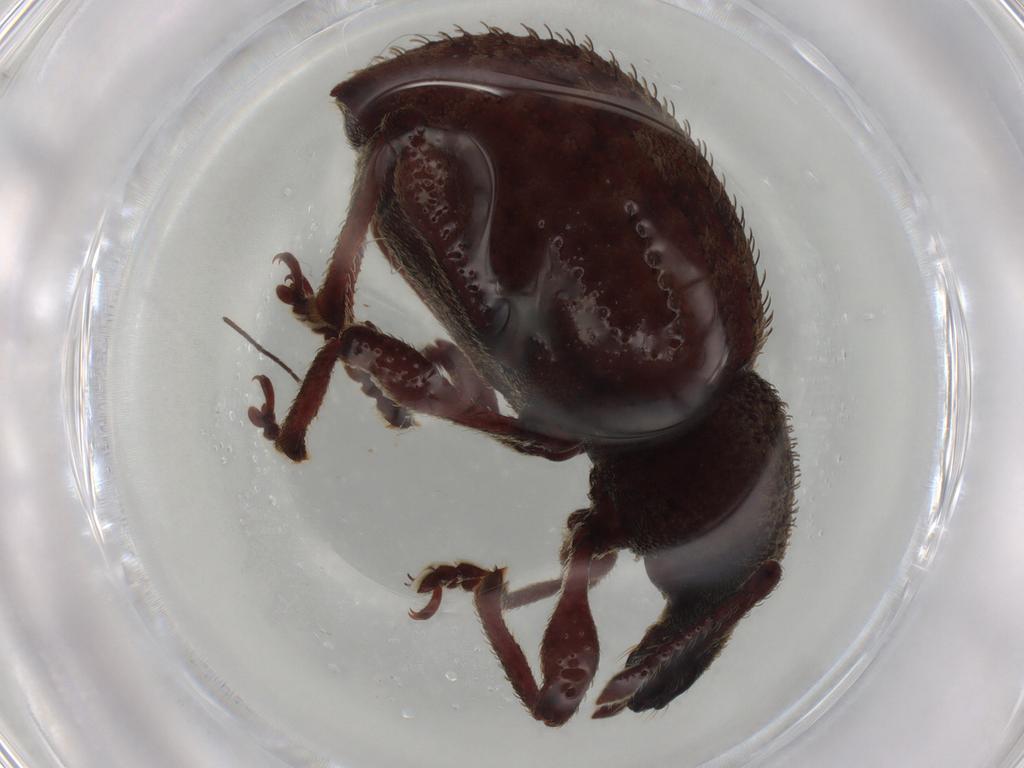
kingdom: Animalia
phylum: Arthropoda
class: Insecta
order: Coleoptera
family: Curculionidae
